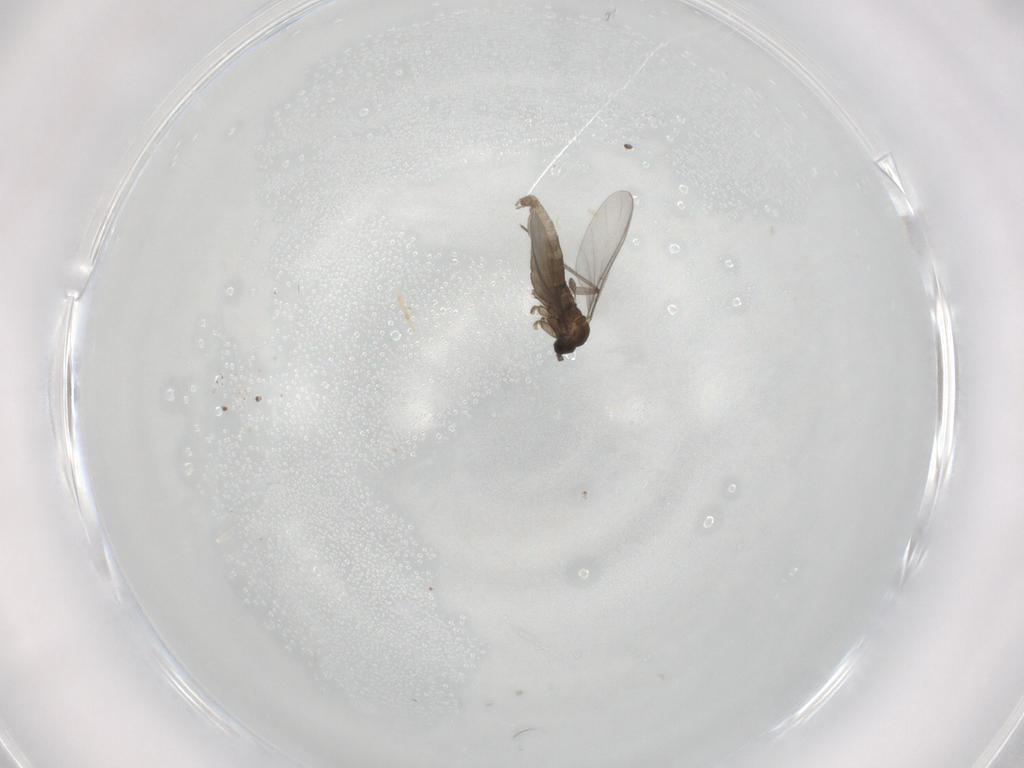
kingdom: Animalia
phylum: Arthropoda
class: Insecta
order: Diptera
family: Sciaridae
